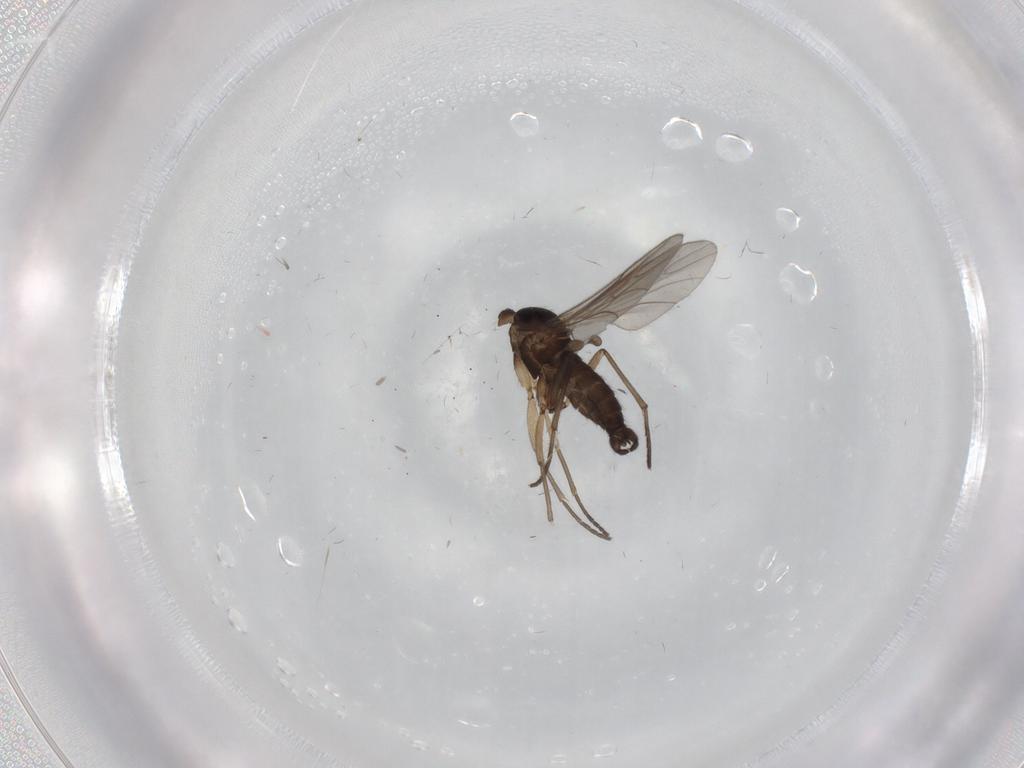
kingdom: Animalia
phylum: Arthropoda
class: Insecta
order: Diptera
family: Sciaridae
